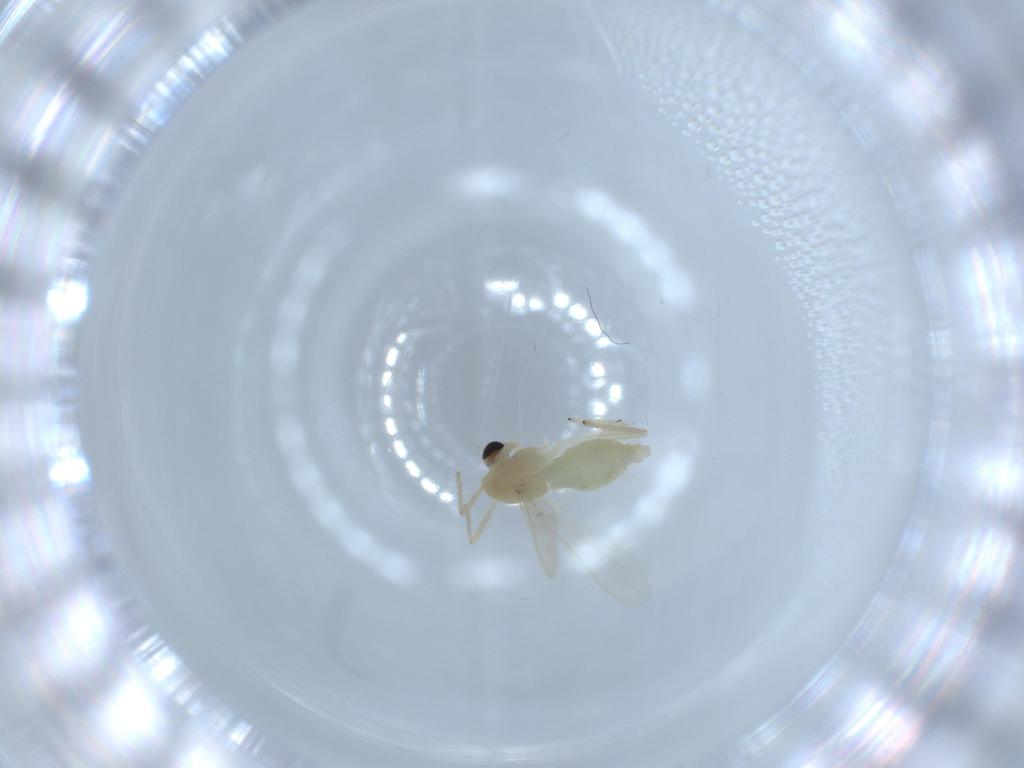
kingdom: Animalia
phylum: Arthropoda
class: Insecta
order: Diptera
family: Chironomidae
